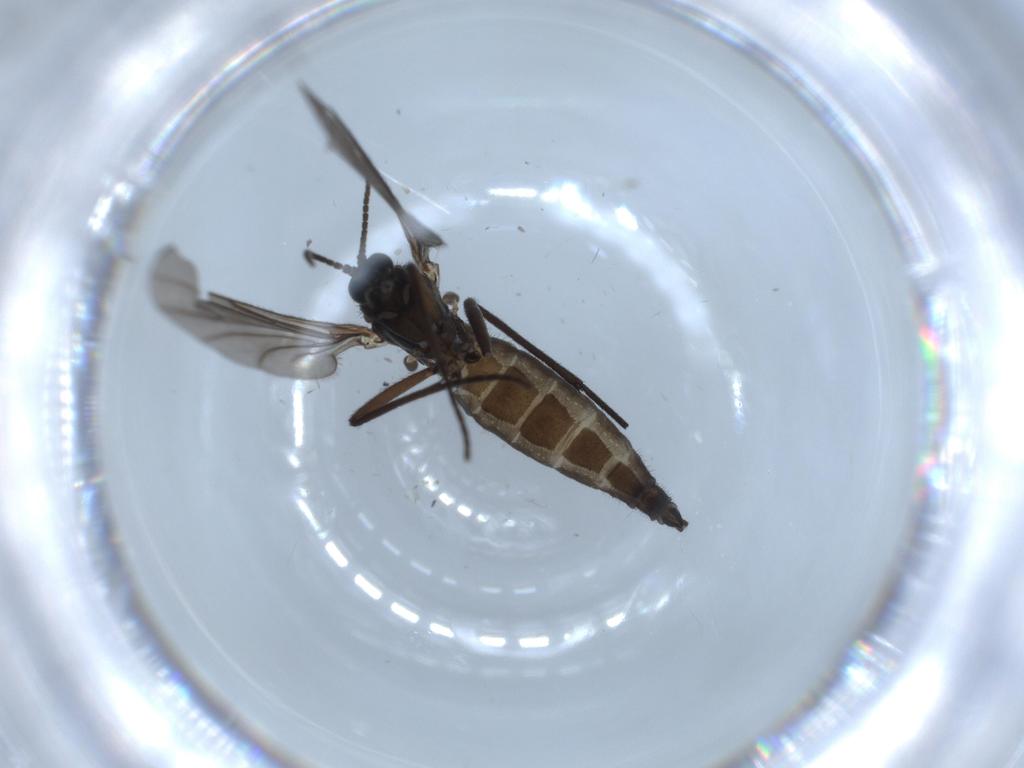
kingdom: Animalia
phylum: Arthropoda
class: Insecta
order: Diptera
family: Sciaridae
